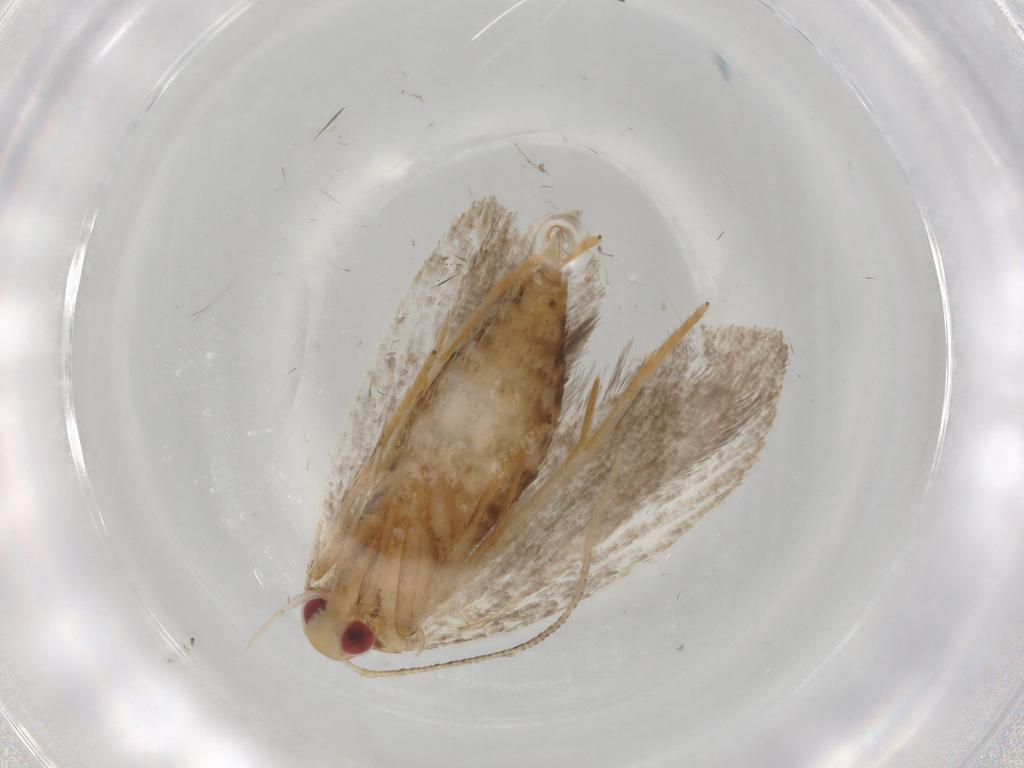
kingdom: Animalia
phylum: Arthropoda
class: Insecta
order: Lepidoptera
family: Oecophoridae
